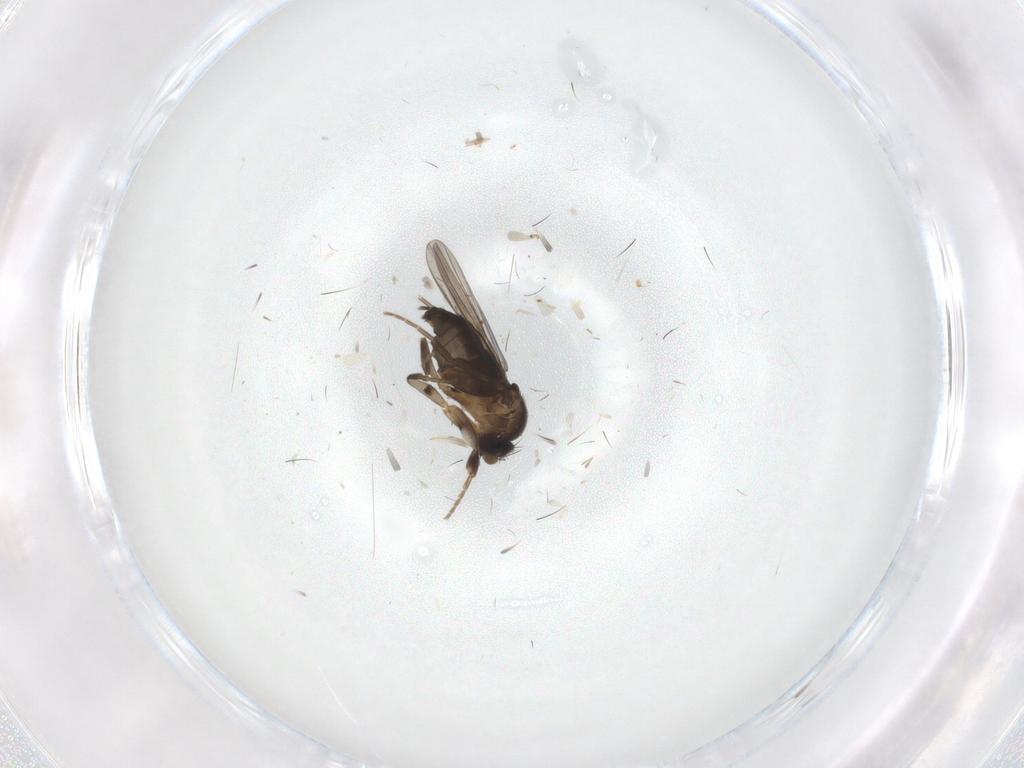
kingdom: Animalia
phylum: Arthropoda
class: Insecta
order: Diptera
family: Phoridae
